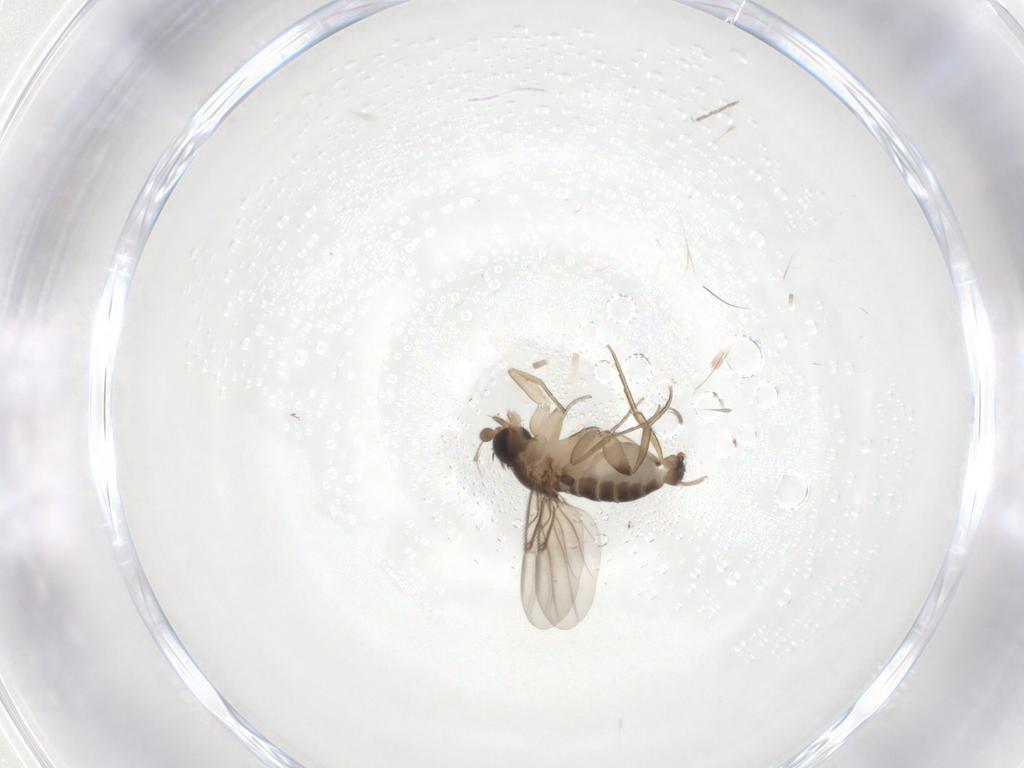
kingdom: Animalia
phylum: Arthropoda
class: Insecta
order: Diptera
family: Phoridae
